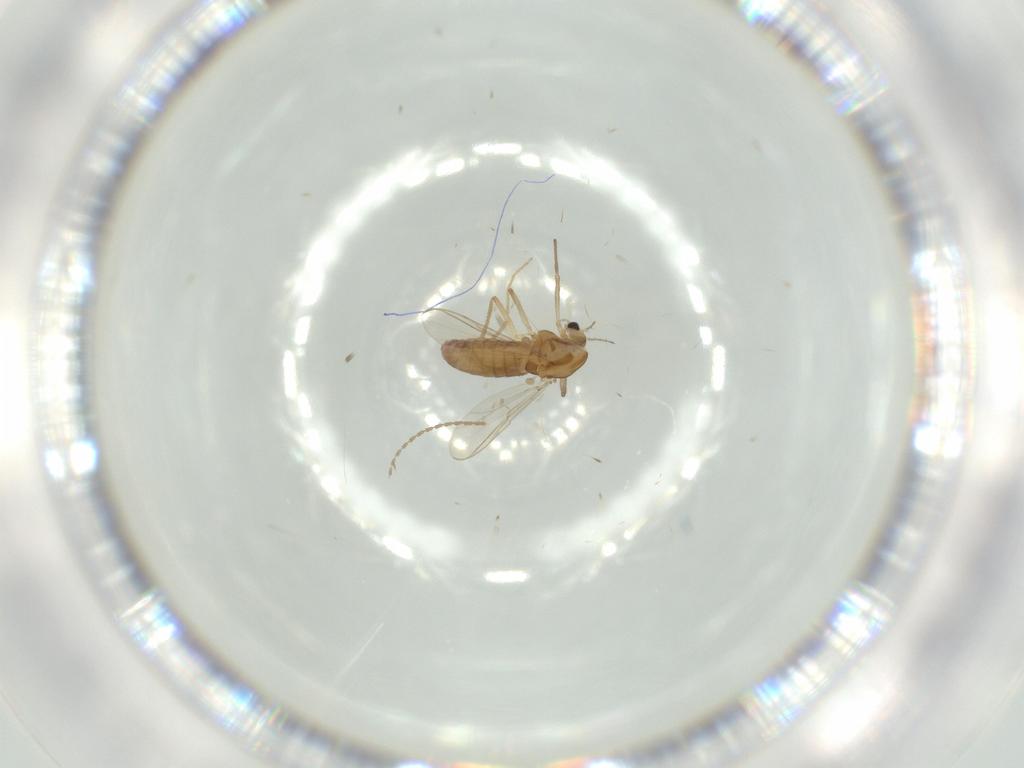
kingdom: Animalia
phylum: Arthropoda
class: Insecta
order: Diptera
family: Chironomidae
